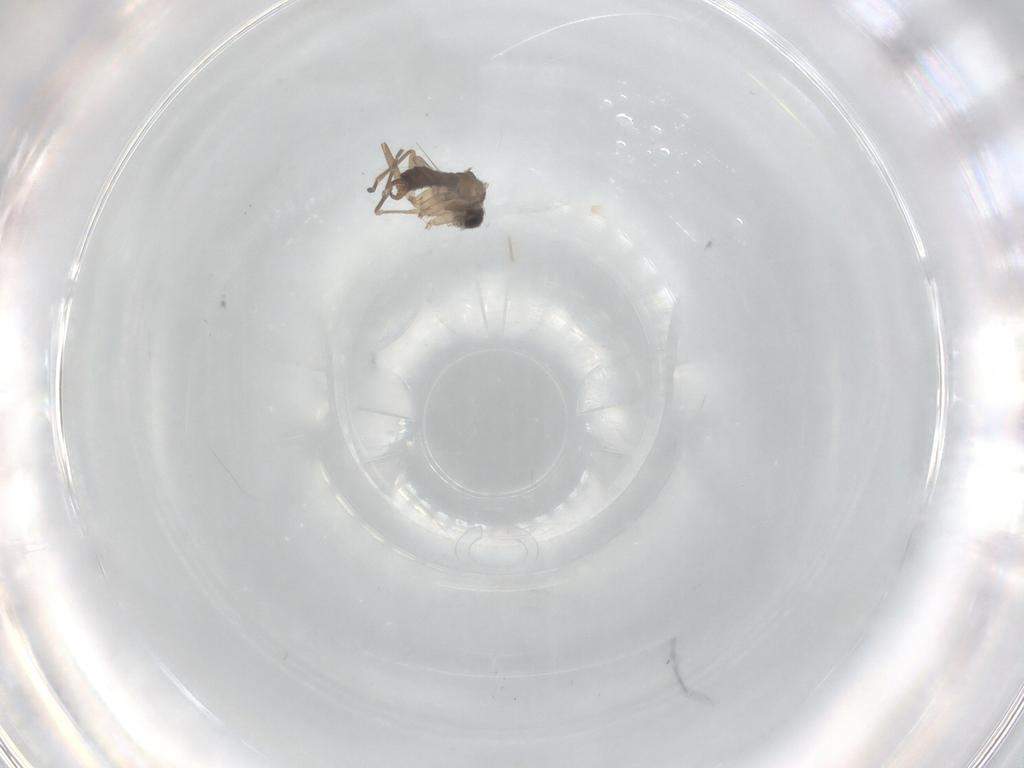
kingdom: Animalia
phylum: Arthropoda
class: Insecta
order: Diptera
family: Sciaridae
